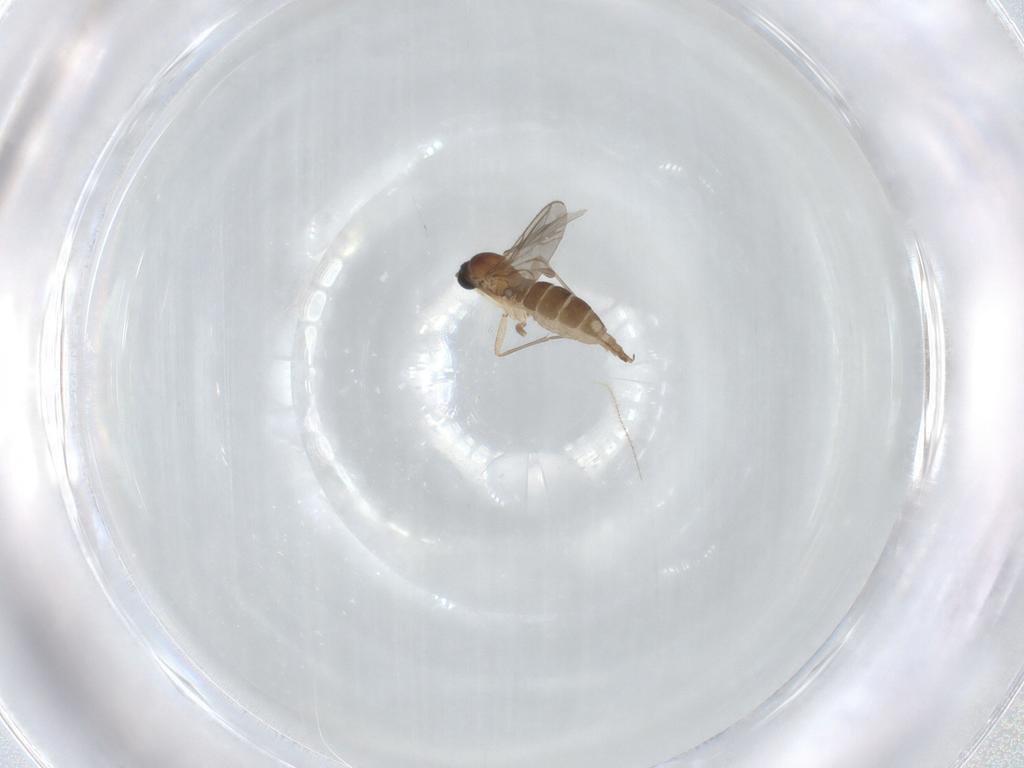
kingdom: Animalia
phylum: Arthropoda
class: Insecta
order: Diptera
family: Sciaridae
